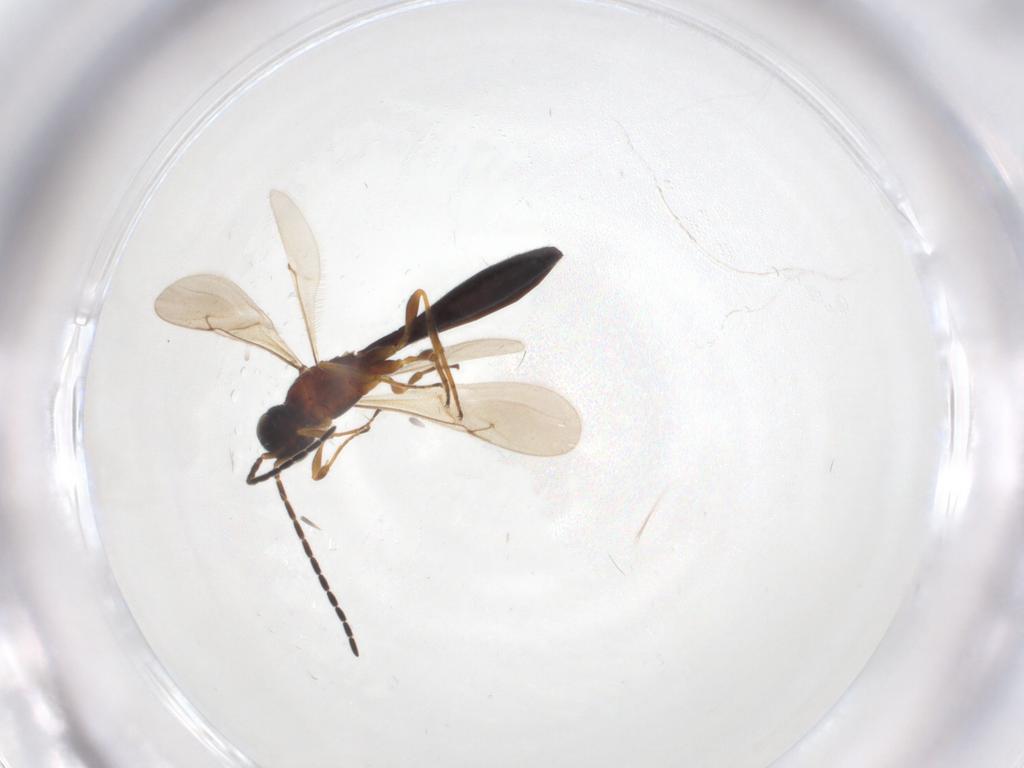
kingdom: Animalia
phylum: Arthropoda
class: Insecta
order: Hymenoptera
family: Scelionidae
